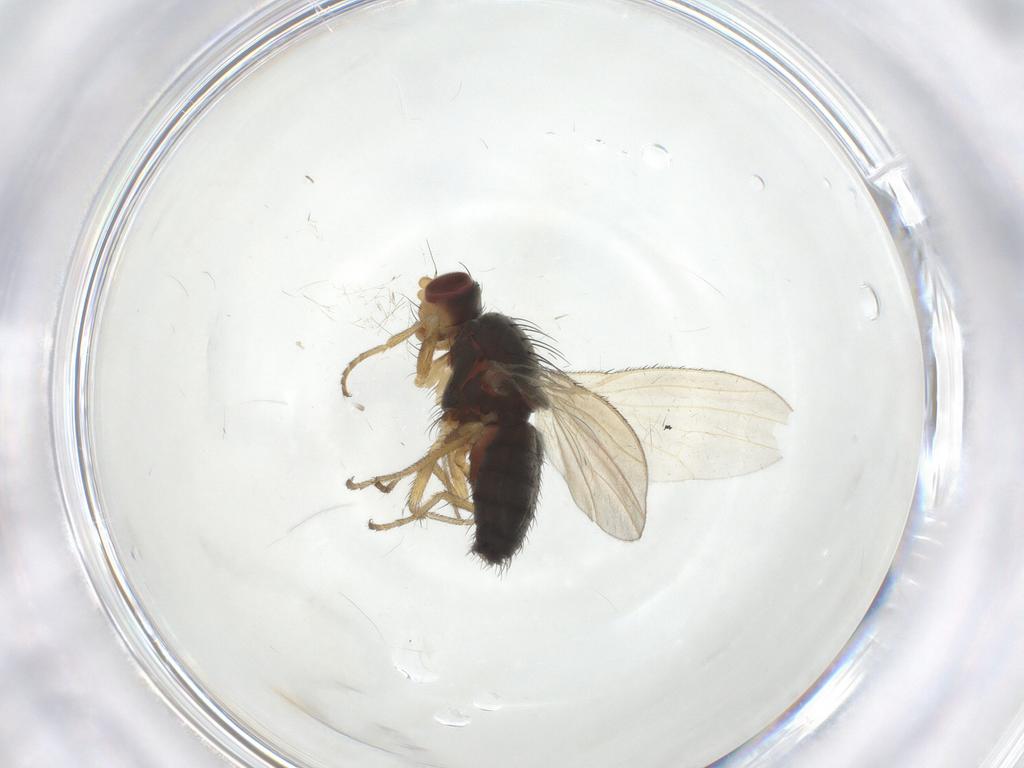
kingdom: Animalia
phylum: Arthropoda
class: Insecta
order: Diptera
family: Heleomyzidae
